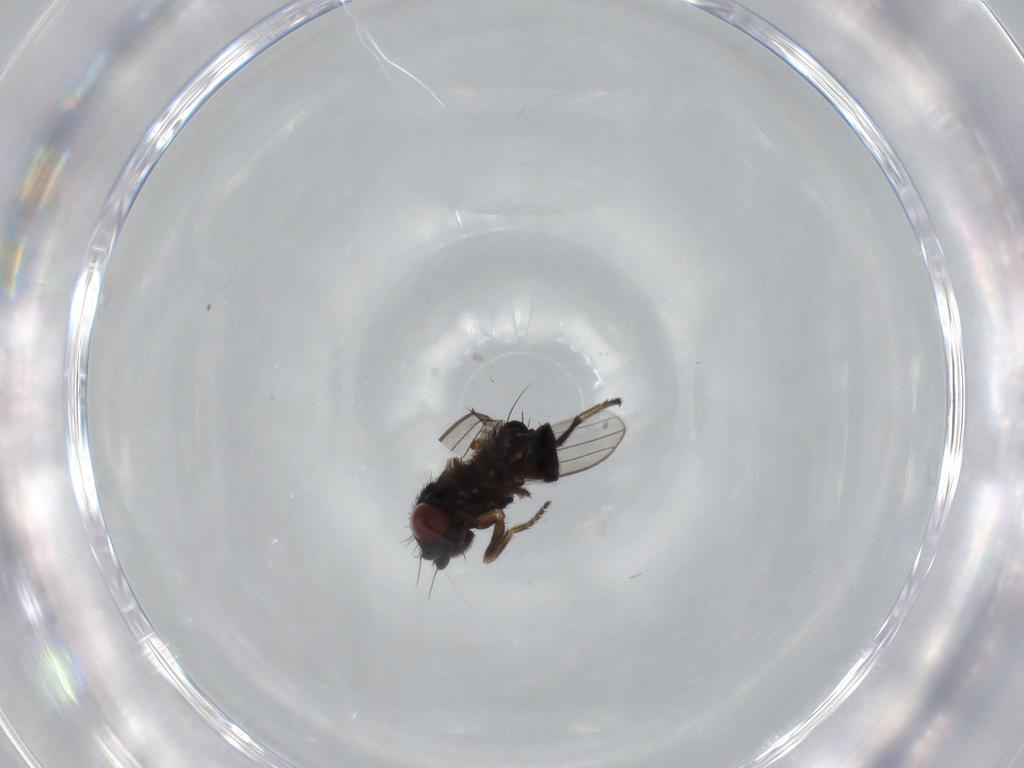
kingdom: Animalia
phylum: Arthropoda
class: Insecta
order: Diptera
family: Milichiidae
